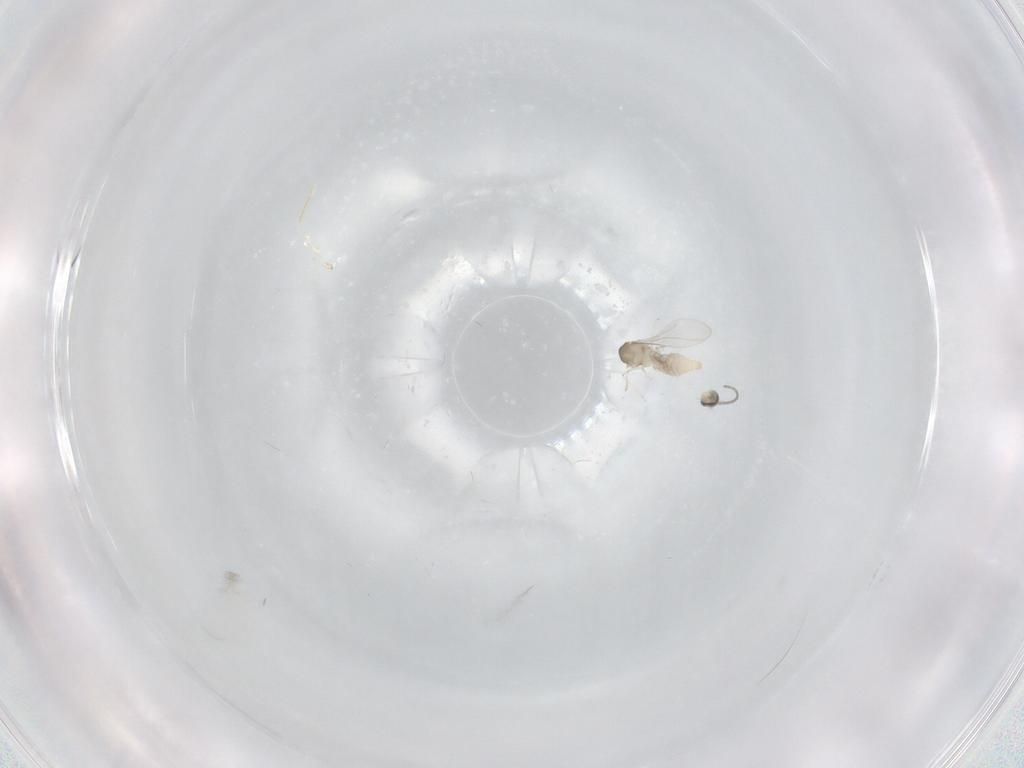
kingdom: Animalia
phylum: Arthropoda
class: Insecta
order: Diptera
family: Cecidomyiidae
